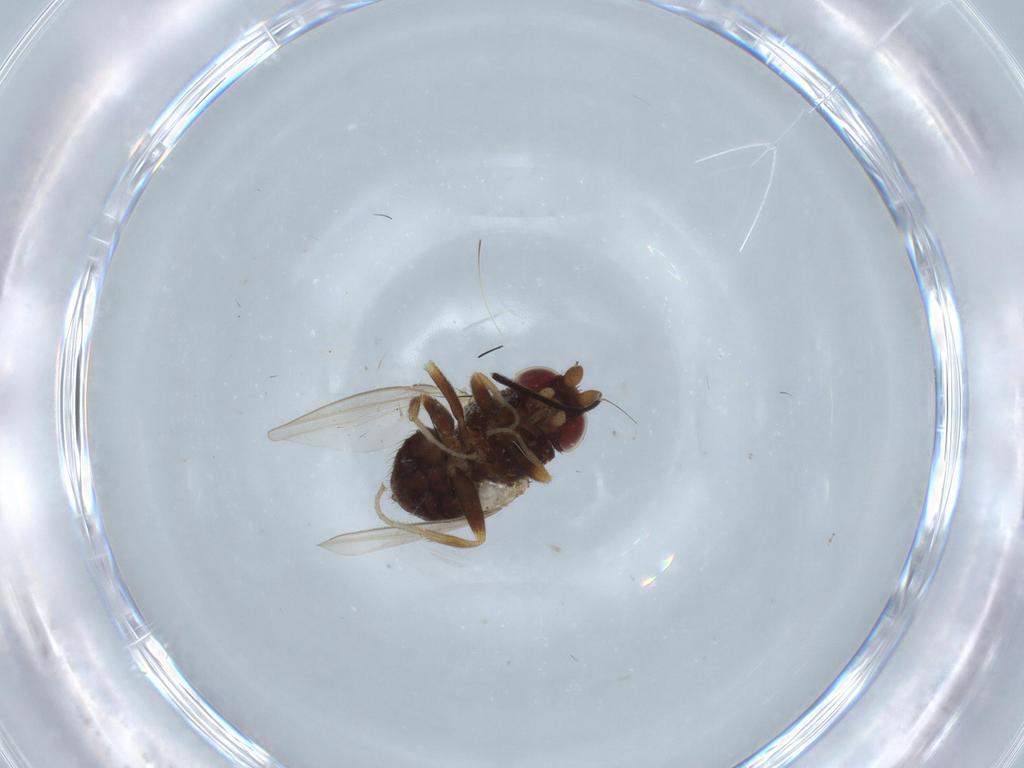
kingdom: Animalia
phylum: Arthropoda
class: Insecta
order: Diptera
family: Dolichopodidae
